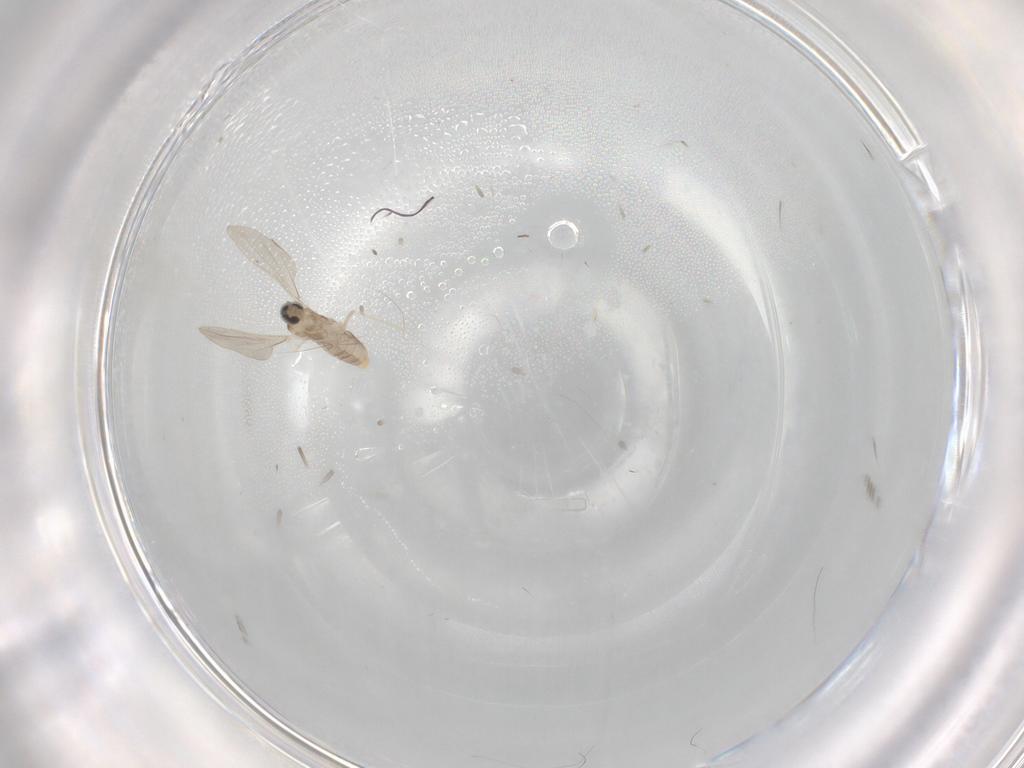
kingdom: Animalia
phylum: Arthropoda
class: Insecta
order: Diptera
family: Cecidomyiidae
